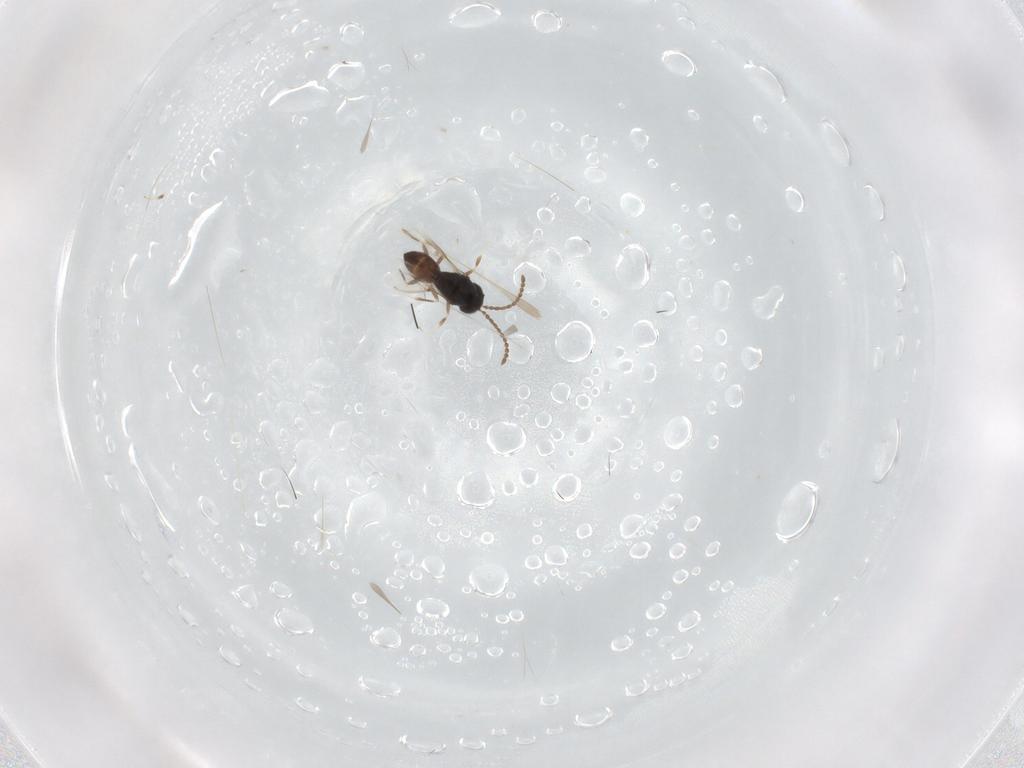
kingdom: Animalia
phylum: Arthropoda
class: Insecta
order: Hymenoptera
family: Scelionidae
